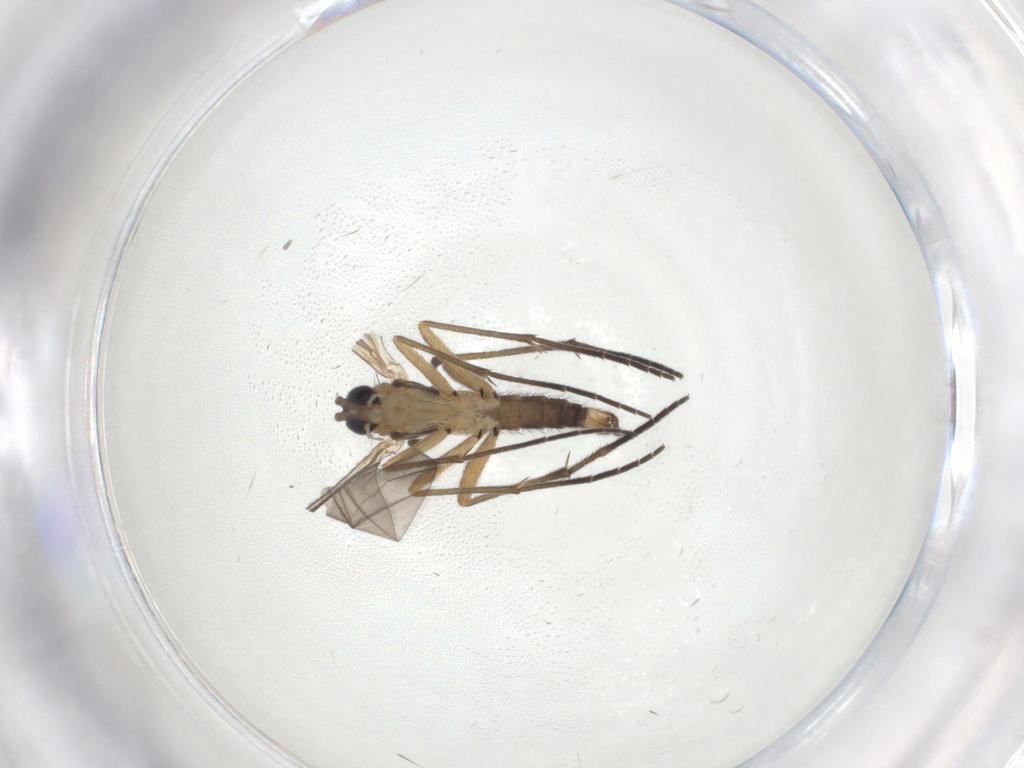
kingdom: Animalia
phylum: Arthropoda
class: Insecta
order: Diptera
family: Sciaridae
